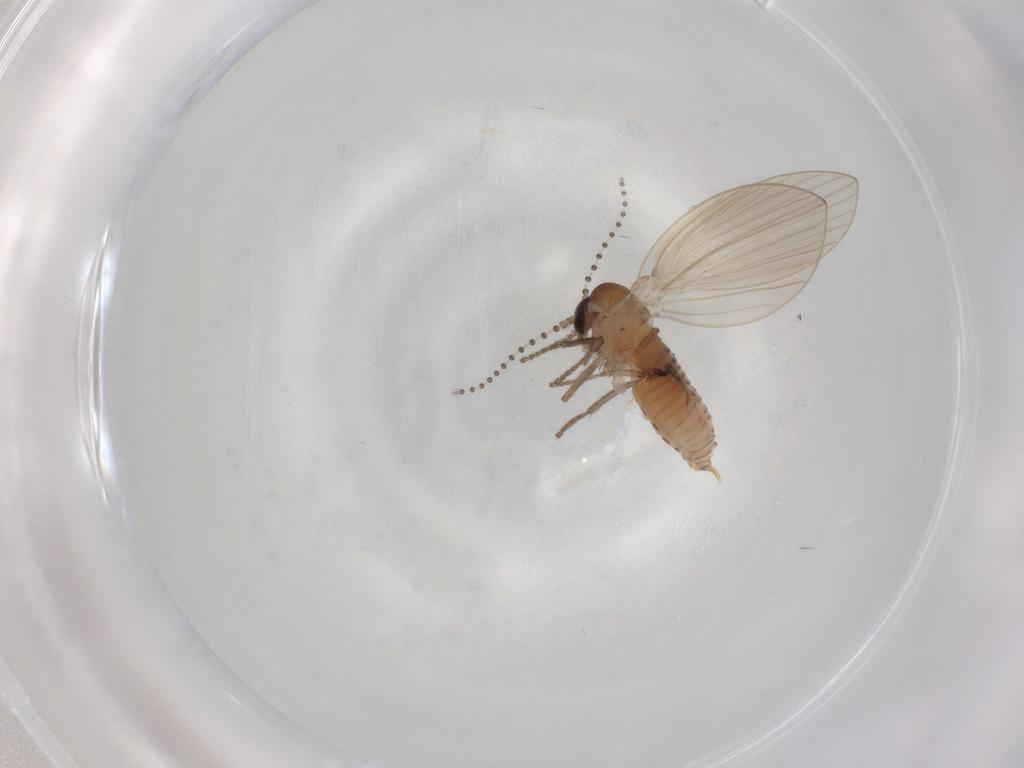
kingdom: Animalia
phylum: Arthropoda
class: Insecta
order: Diptera
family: Psychodidae
